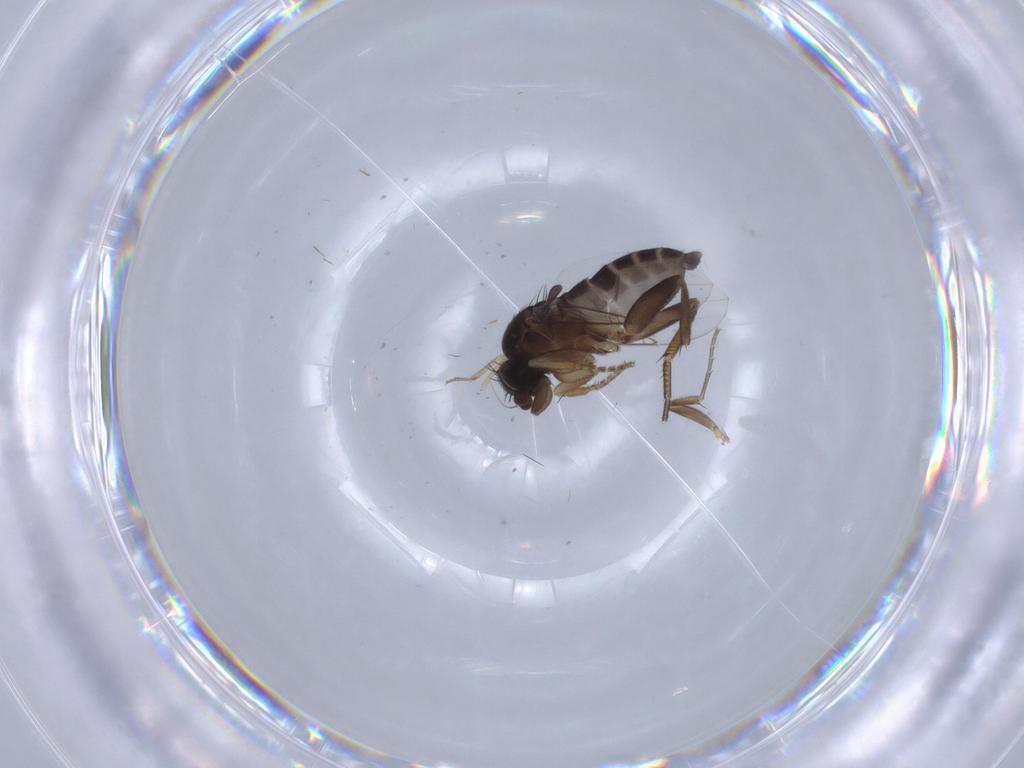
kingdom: Animalia
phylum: Arthropoda
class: Insecta
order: Diptera
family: Phoridae
